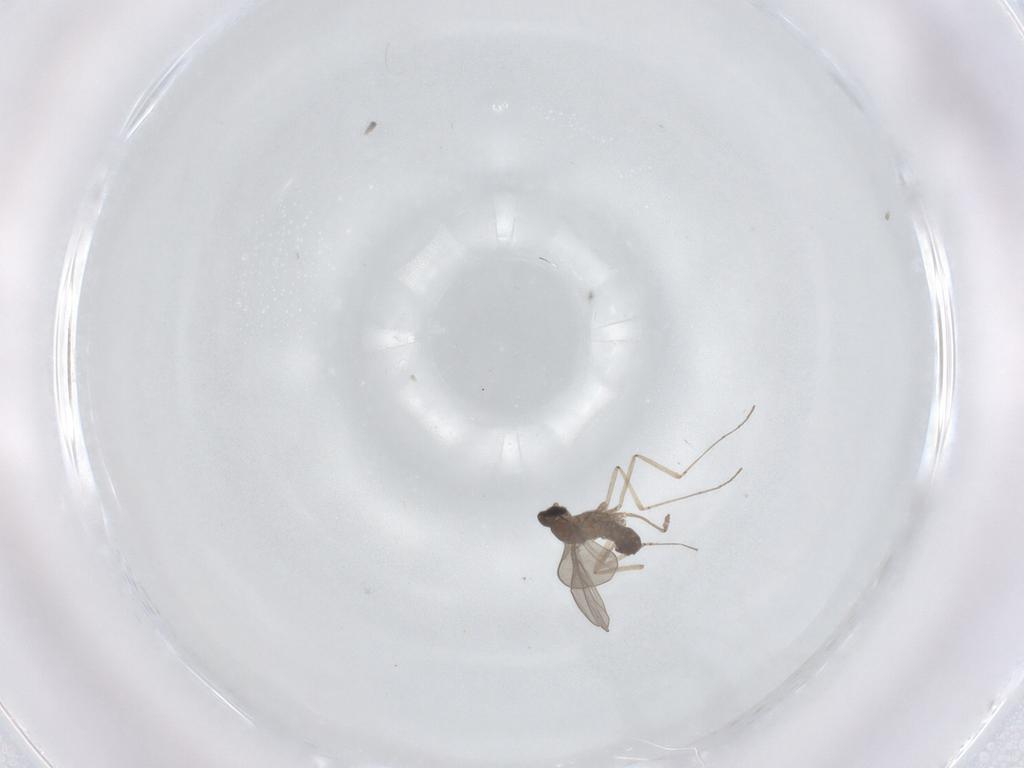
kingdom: Animalia
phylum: Arthropoda
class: Insecta
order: Diptera
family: Cecidomyiidae
